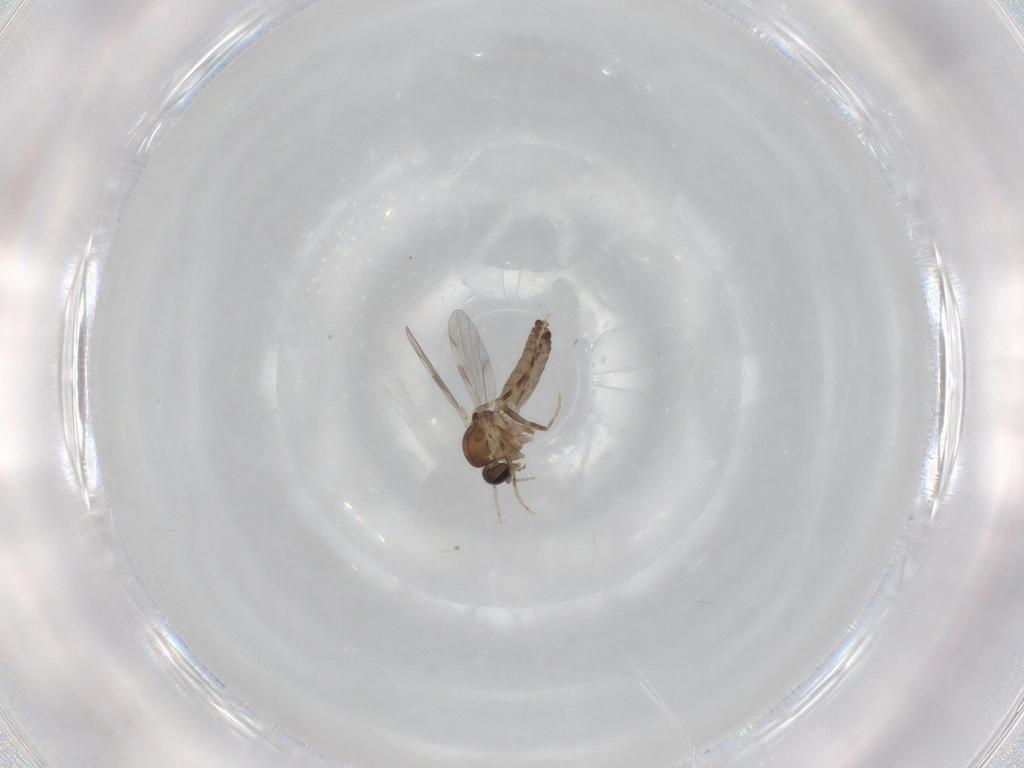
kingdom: Animalia
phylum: Arthropoda
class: Insecta
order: Diptera
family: Ceratopogonidae
